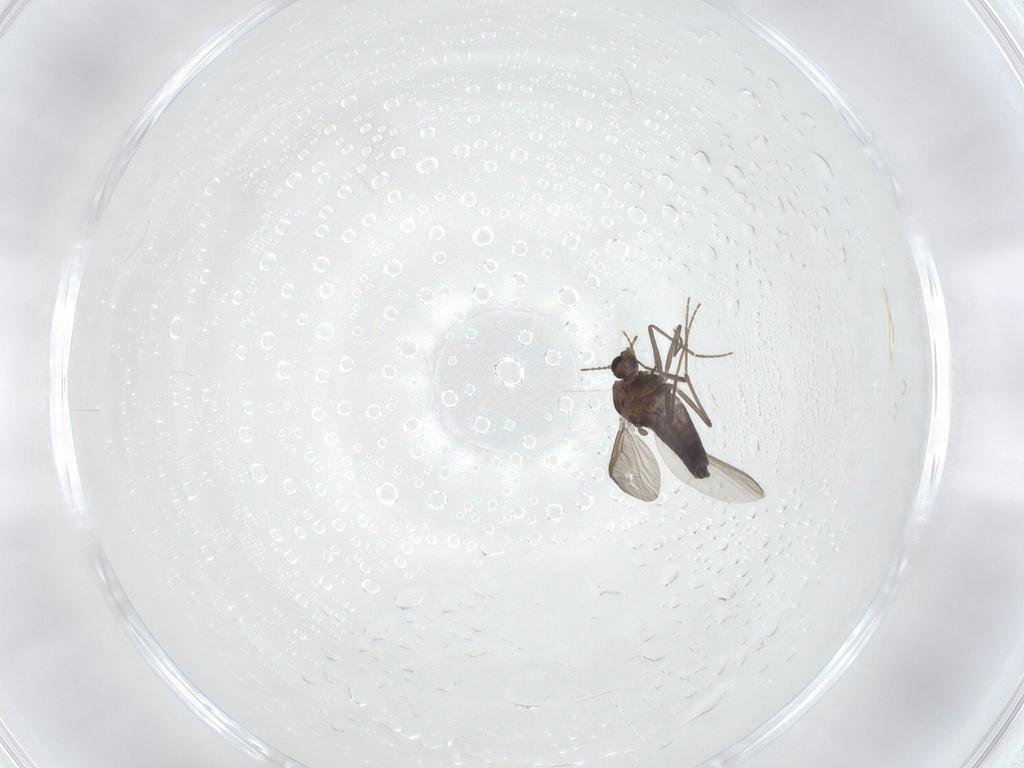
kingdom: Animalia
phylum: Arthropoda
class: Insecta
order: Diptera
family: Chironomidae
